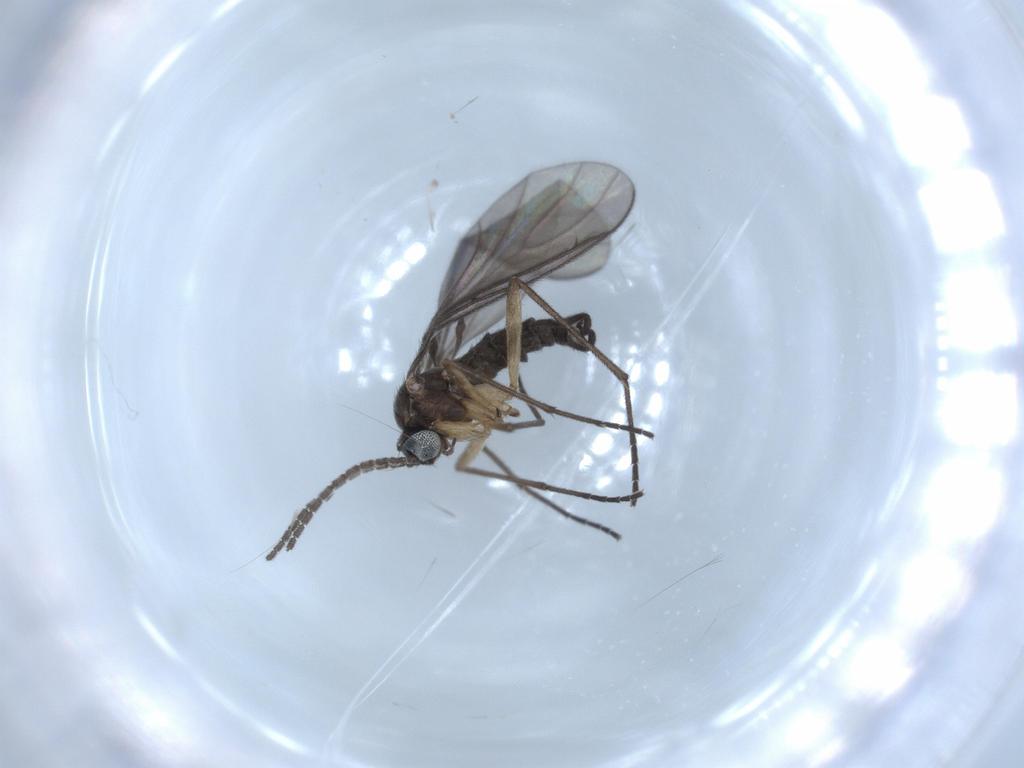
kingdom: Animalia
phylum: Arthropoda
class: Insecta
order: Diptera
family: Sciaridae
